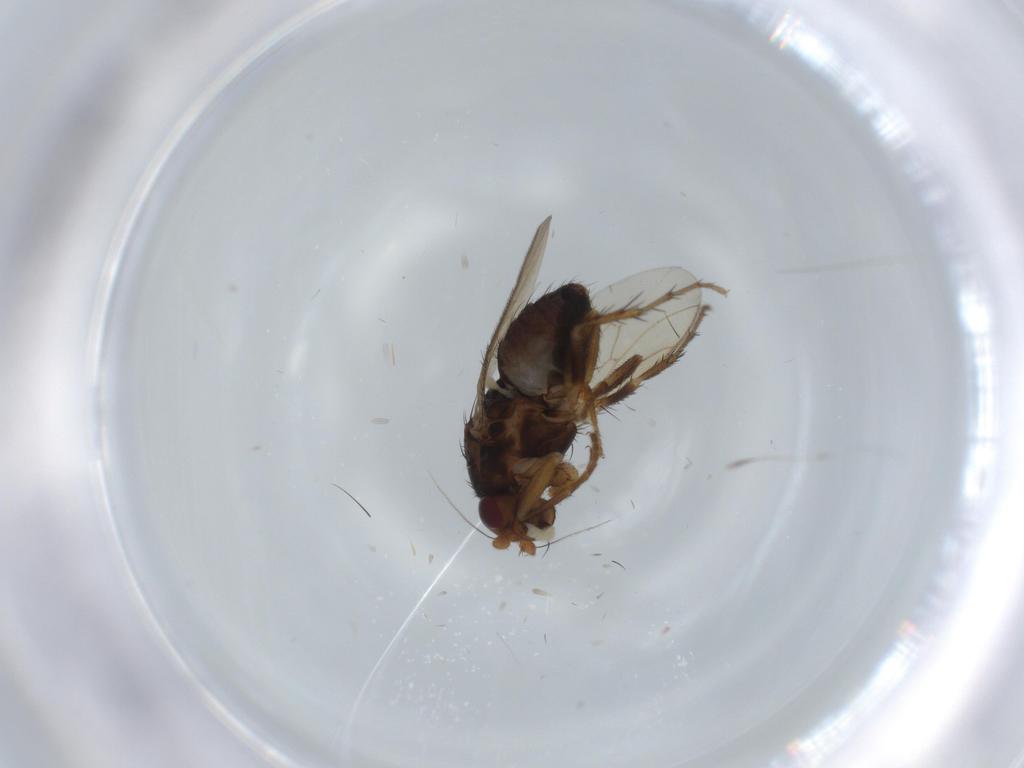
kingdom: Animalia
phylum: Arthropoda
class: Insecta
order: Diptera
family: Sphaeroceridae
